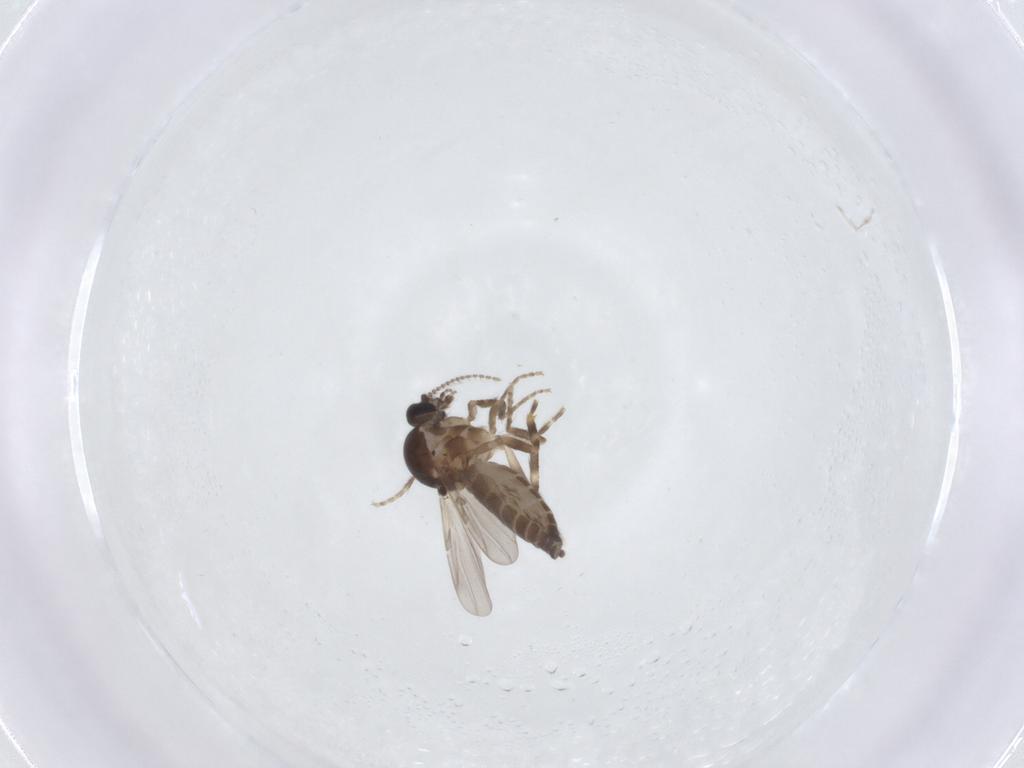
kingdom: Animalia
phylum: Arthropoda
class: Insecta
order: Diptera
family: Ceratopogonidae
